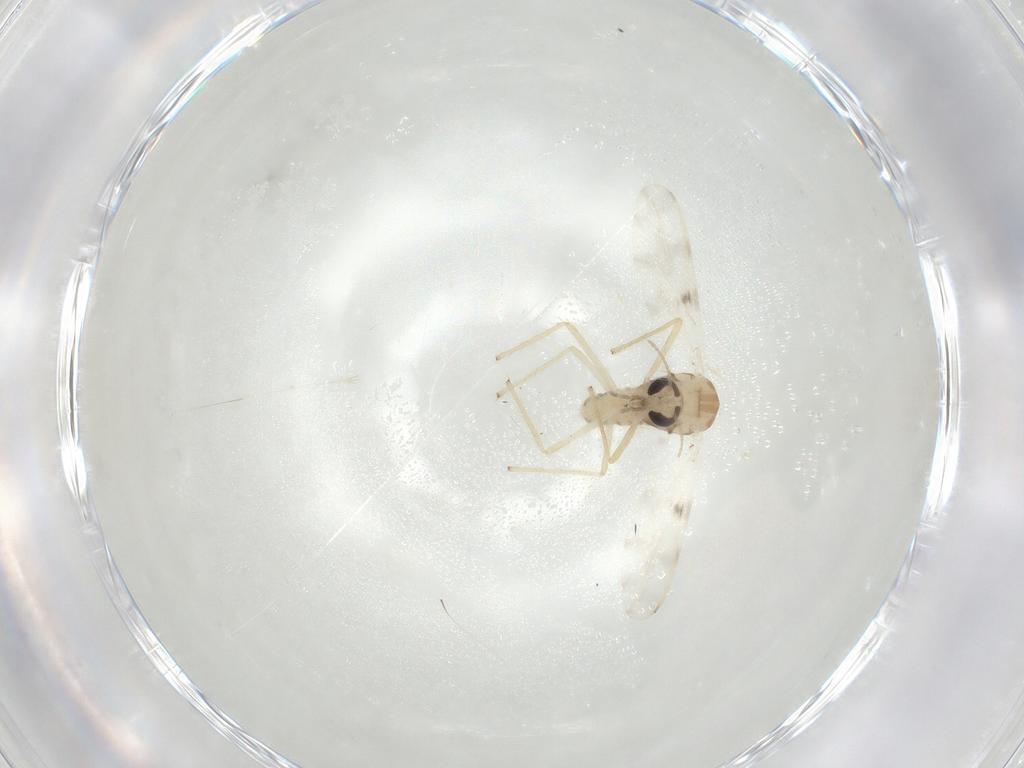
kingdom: Animalia
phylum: Arthropoda
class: Insecta
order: Diptera
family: Chironomidae
